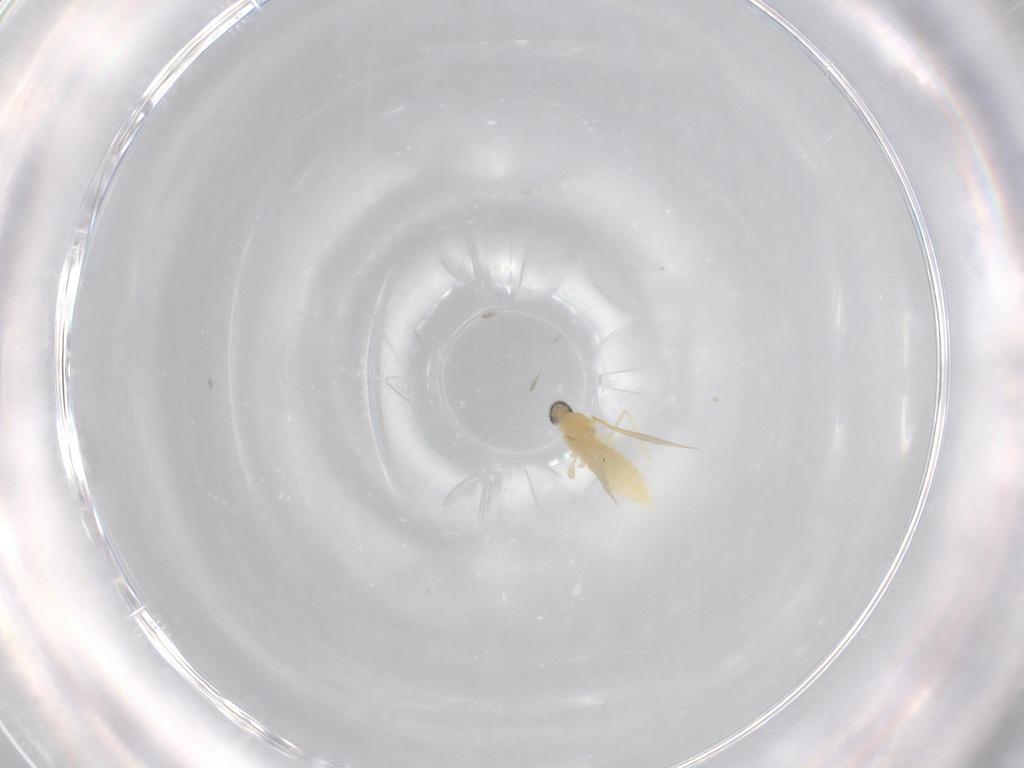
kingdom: Animalia
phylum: Arthropoda
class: Insecta
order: Diptera
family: Cecidomyiidae
